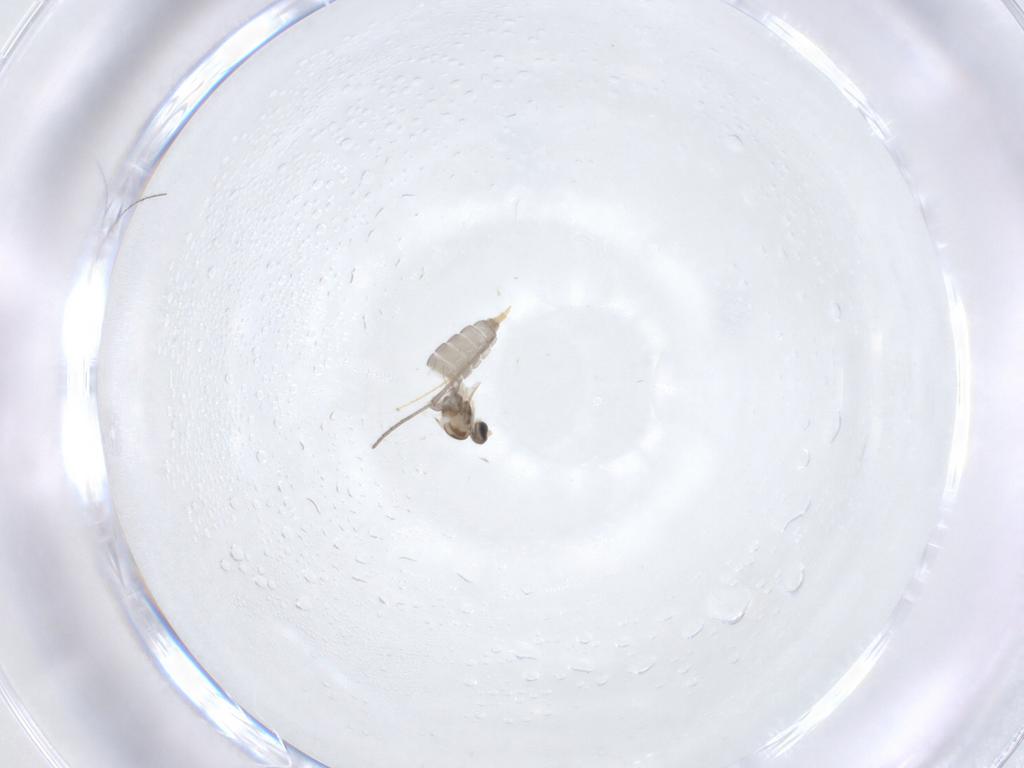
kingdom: Animalia
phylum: Arthropoda
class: Insecta
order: Diptera
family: Sciaridae
